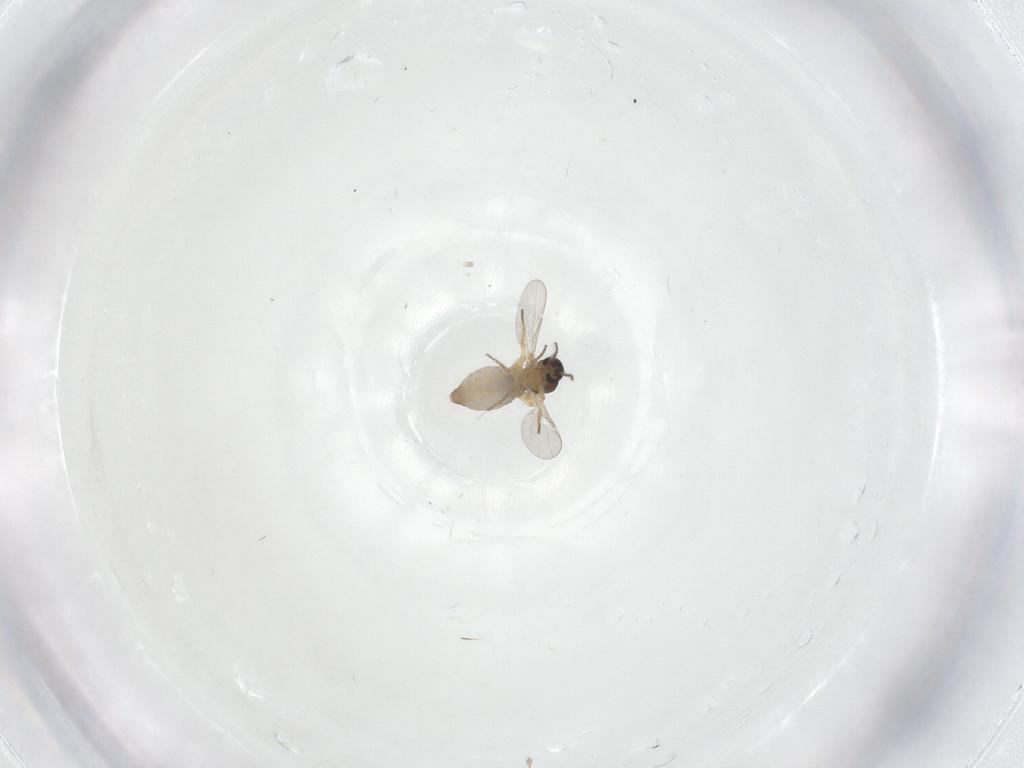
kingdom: Animalia
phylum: Arthropoda
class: Insecta
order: Diptera
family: Ceratopogonidae
